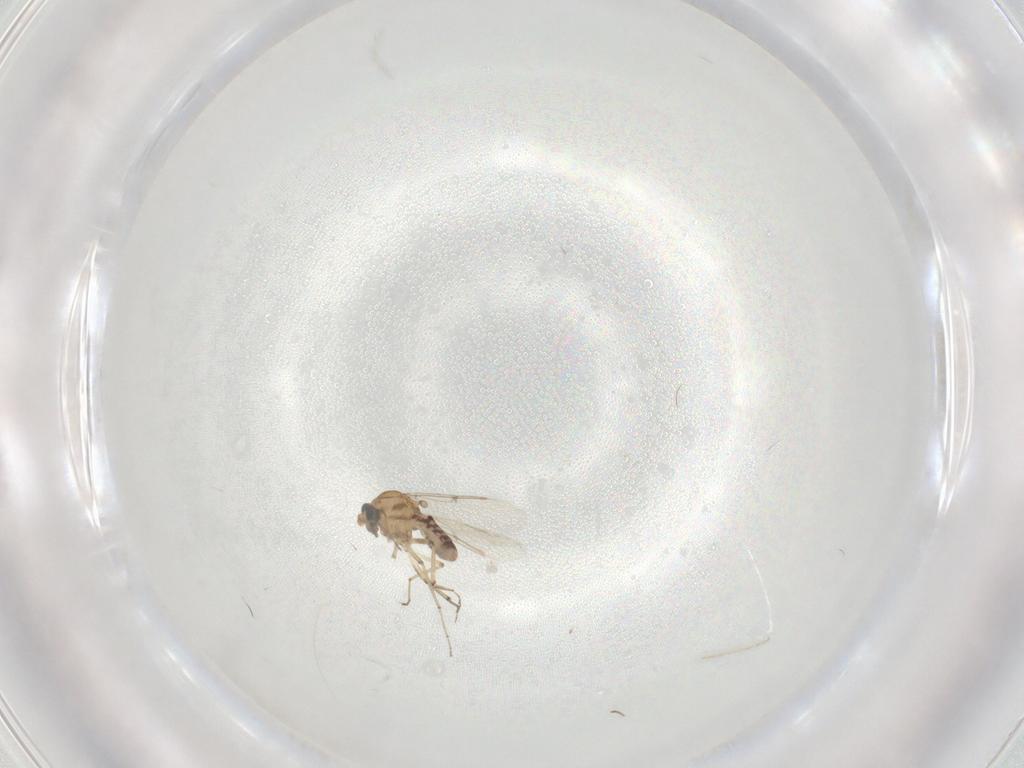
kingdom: Animalia
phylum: Arthropoda
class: Insecta
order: Diptera
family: Ceratopogonidae
